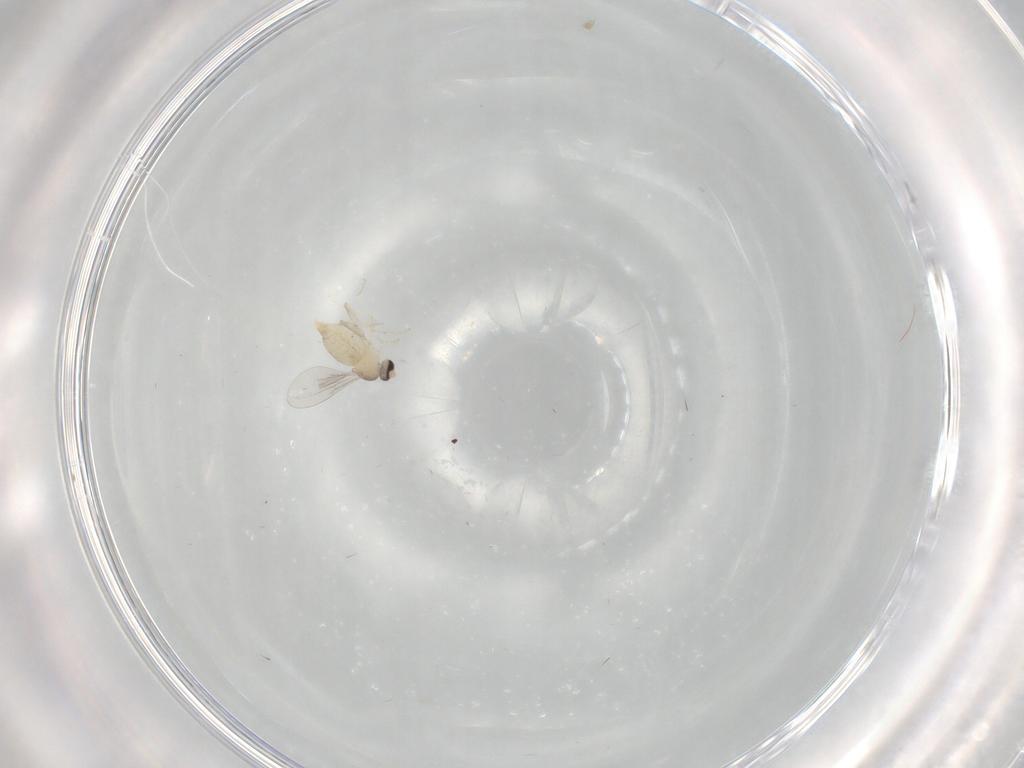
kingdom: Animalia
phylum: Arthropoda
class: Insecta
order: Diptera
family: Cecidomyiidae
